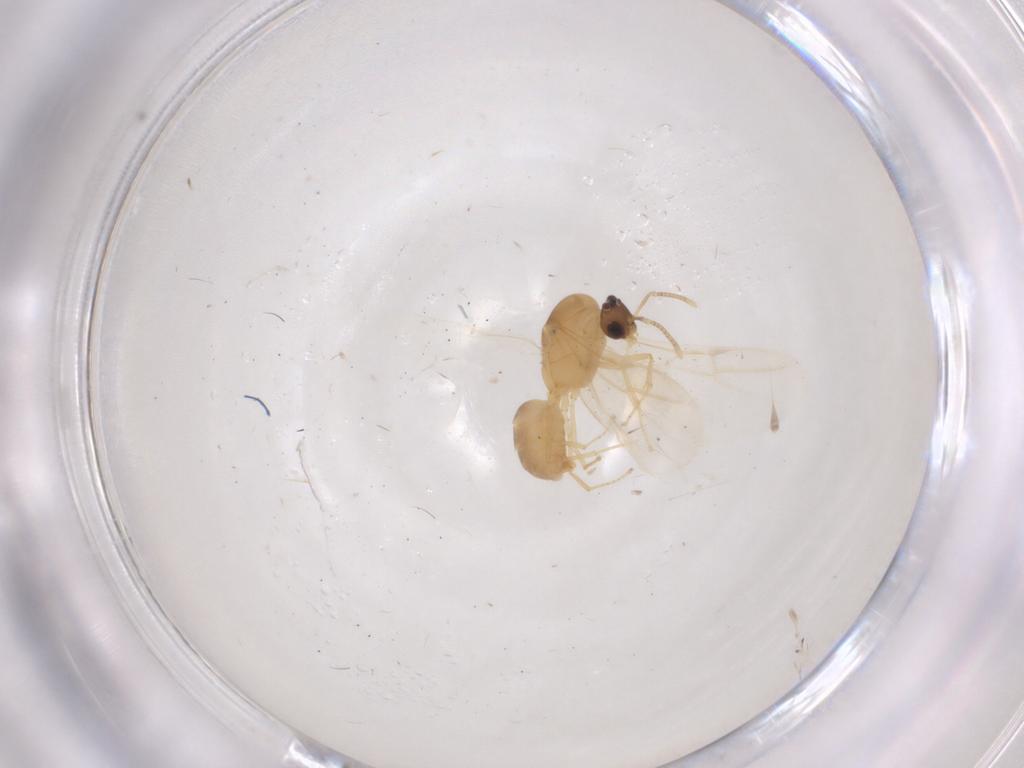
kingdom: Animalia
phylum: Arthropoda
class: Insecta
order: Hymenoptera
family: Formicidae
